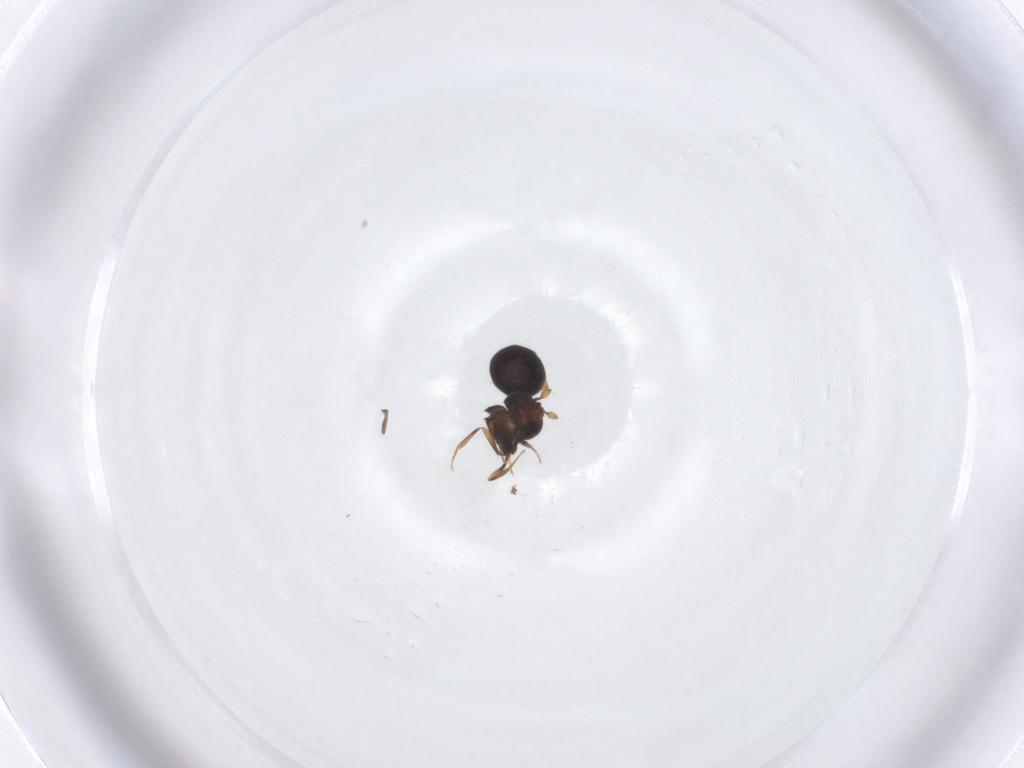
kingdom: Animalia
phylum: Arthropoda
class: Insecta
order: Hymenoptera
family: Scelionidae
